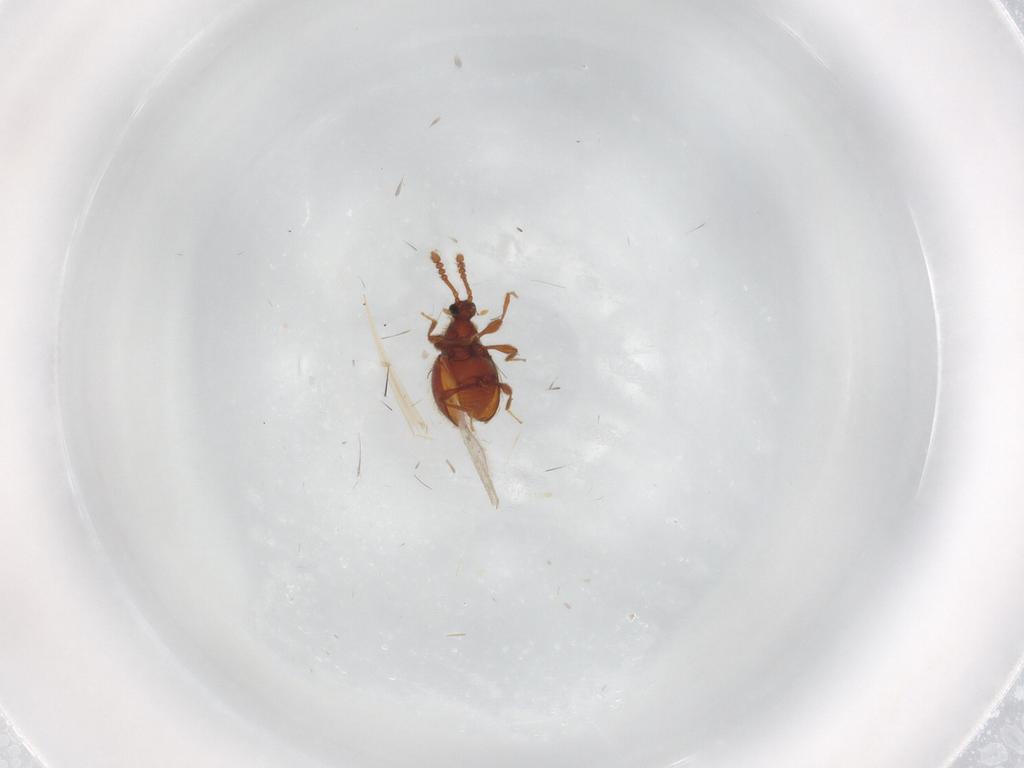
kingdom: Animalia
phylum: Arthropoda
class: Insecta
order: Coleoptera
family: Staphylinidae
